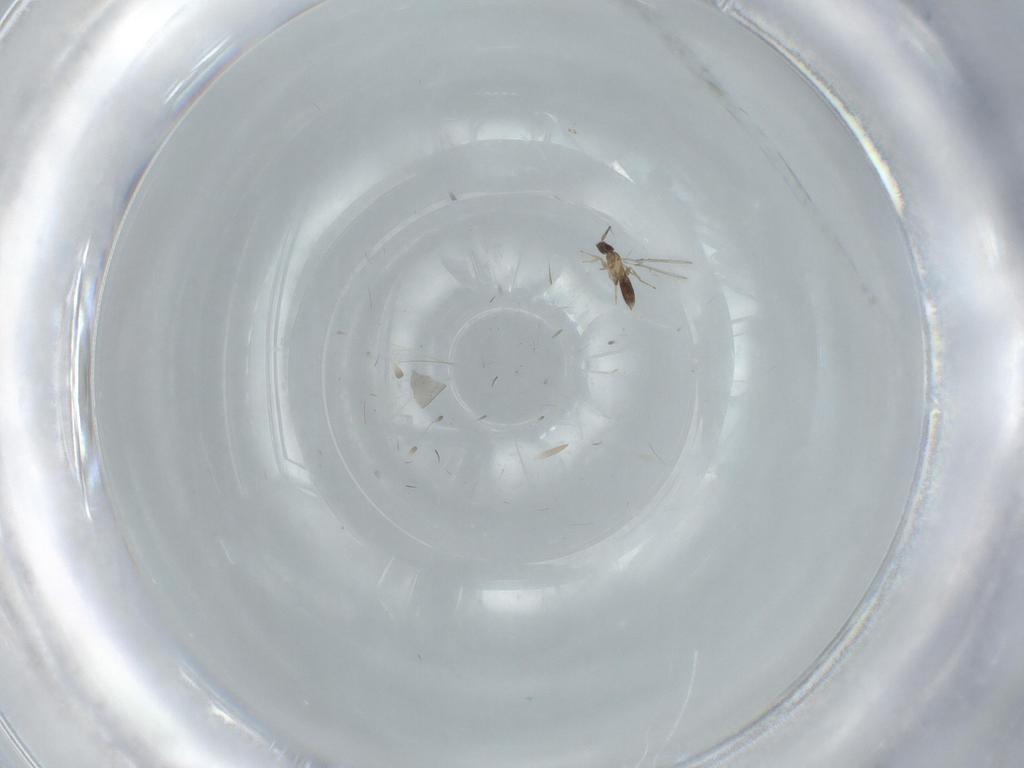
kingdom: Animalia
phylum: Arthropoda
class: Insecta
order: Hymenoptera
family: Mymaridae
